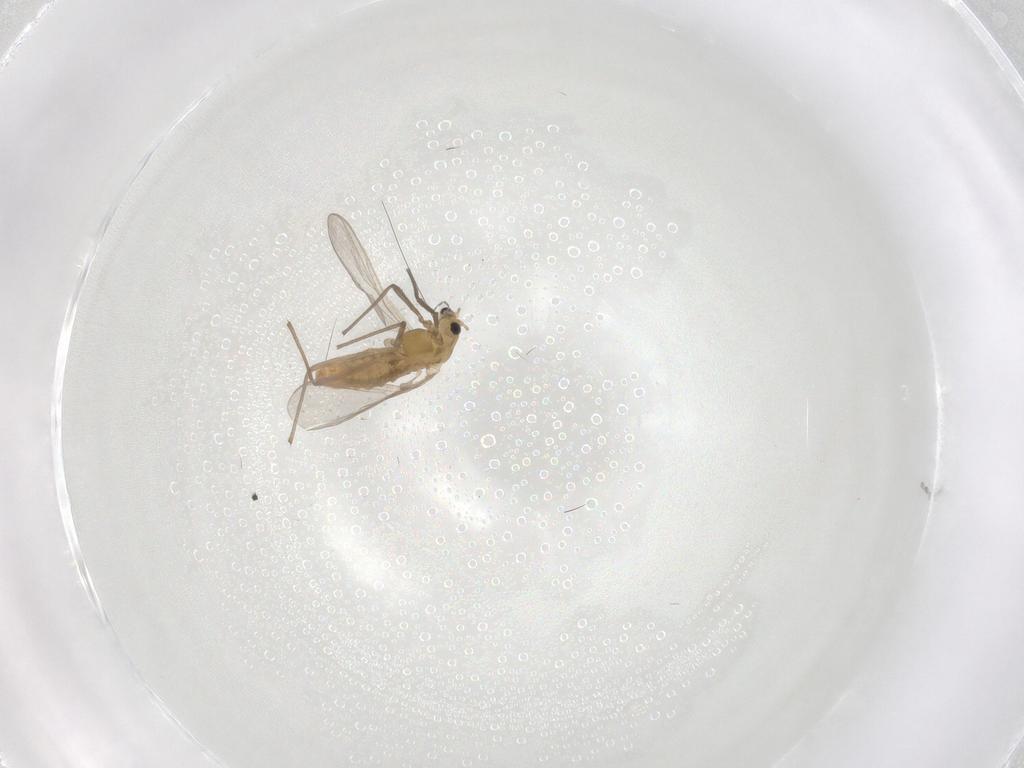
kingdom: Animalia
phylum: Arthropoda
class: Insecta
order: Diptera
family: Chironomidae
